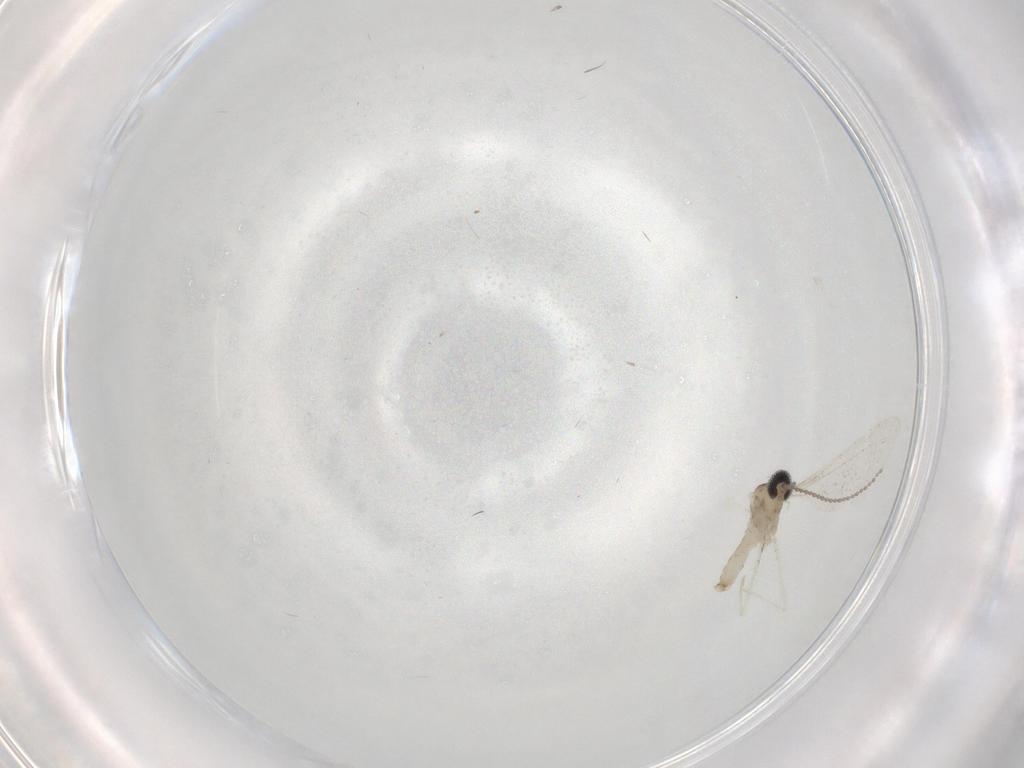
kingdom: Animalia
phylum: Arthropoda
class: Insecta
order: Diptera
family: Cecidomyiidae
